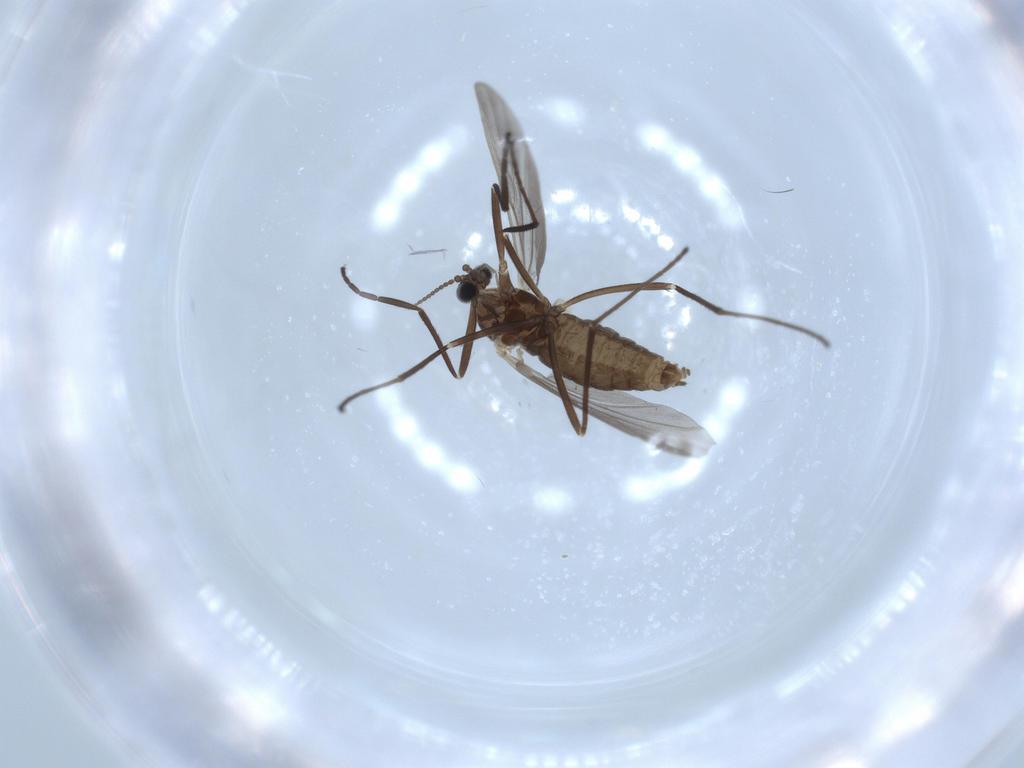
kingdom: Animalia
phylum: Arthropoda
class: Insecta
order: Diptera
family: Cecidomyiidae
